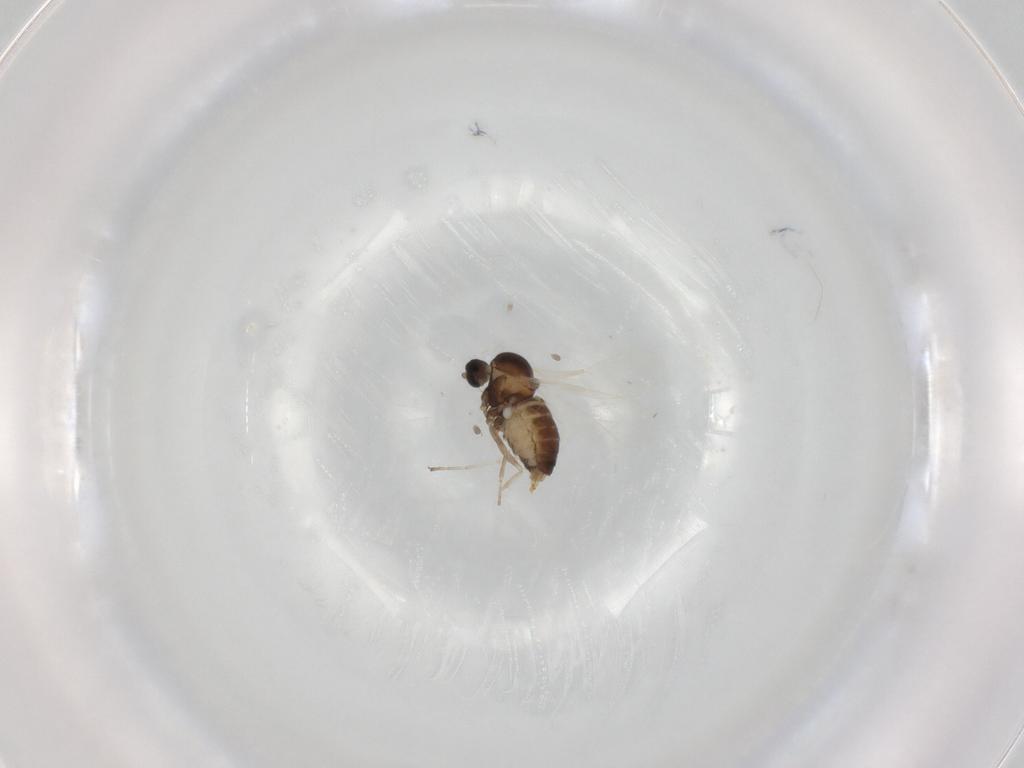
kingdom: Animalia
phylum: Arthropoda
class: Insecta
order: Diptera
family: Cecidomyiidae
